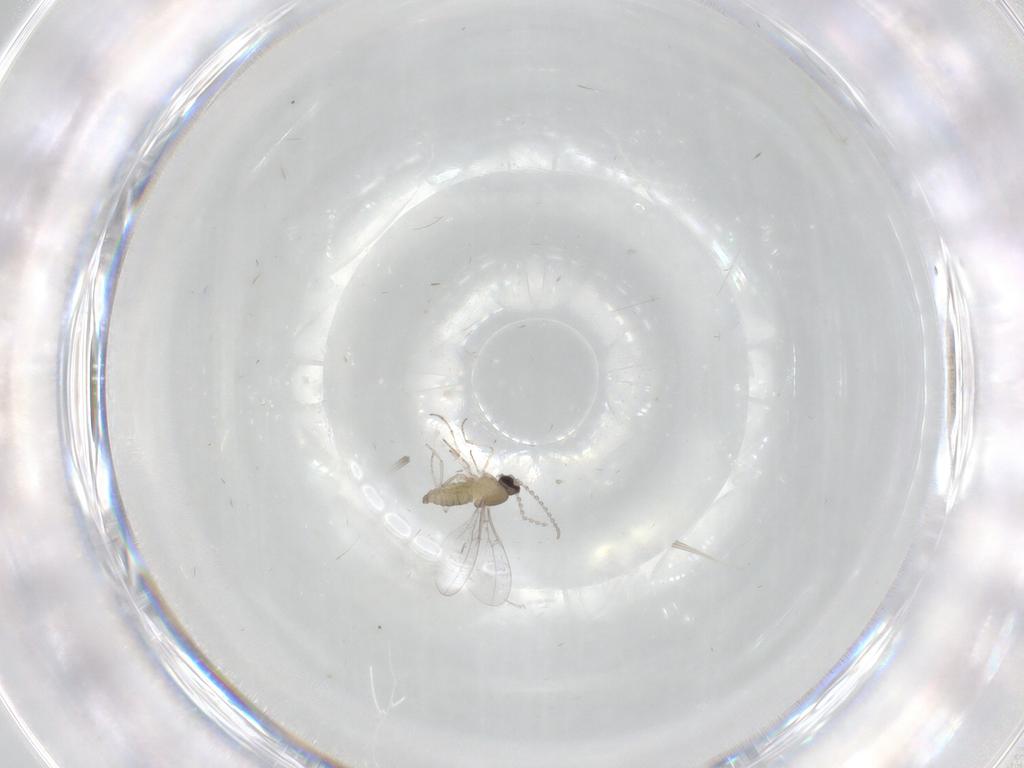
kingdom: Animalia
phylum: Arthropoda
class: Insecta
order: Diptera
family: Cecidomyiidae
